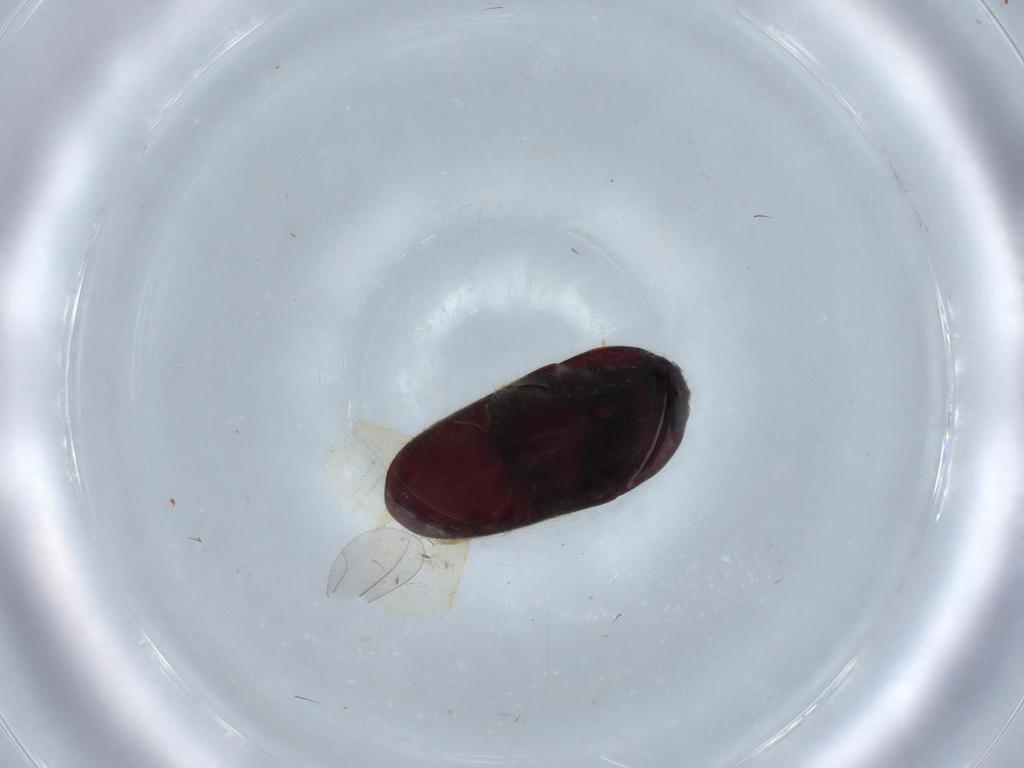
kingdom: Animalia
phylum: Arthropoda
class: Insecta
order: Coleoptera
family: Throscidae
